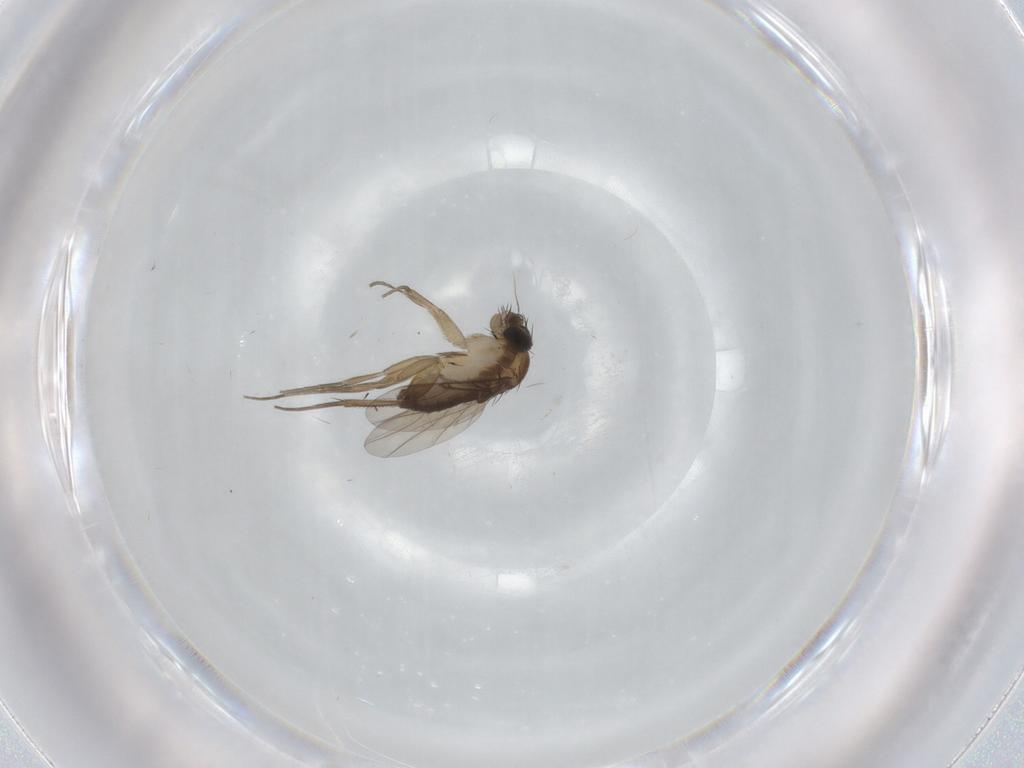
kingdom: Animalia
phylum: Arthropoda
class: Insecta
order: Diptera
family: Phoridae
